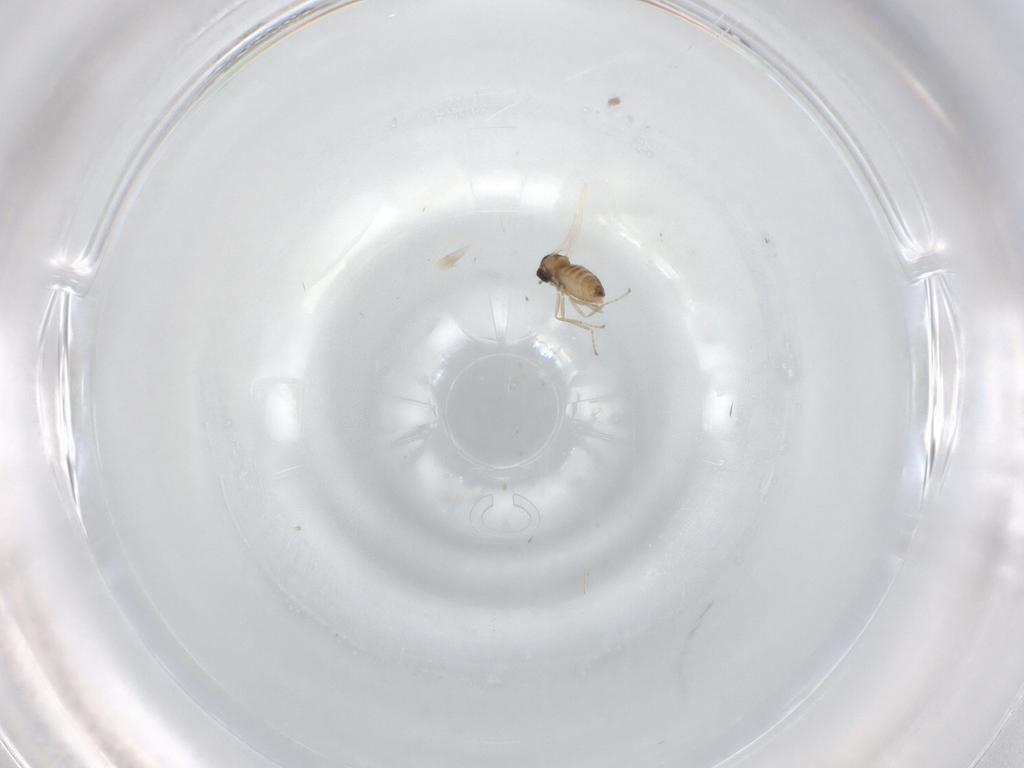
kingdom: Animalia
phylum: Arthropoda
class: Insecta
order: Diptera
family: Cecidomyiidae
